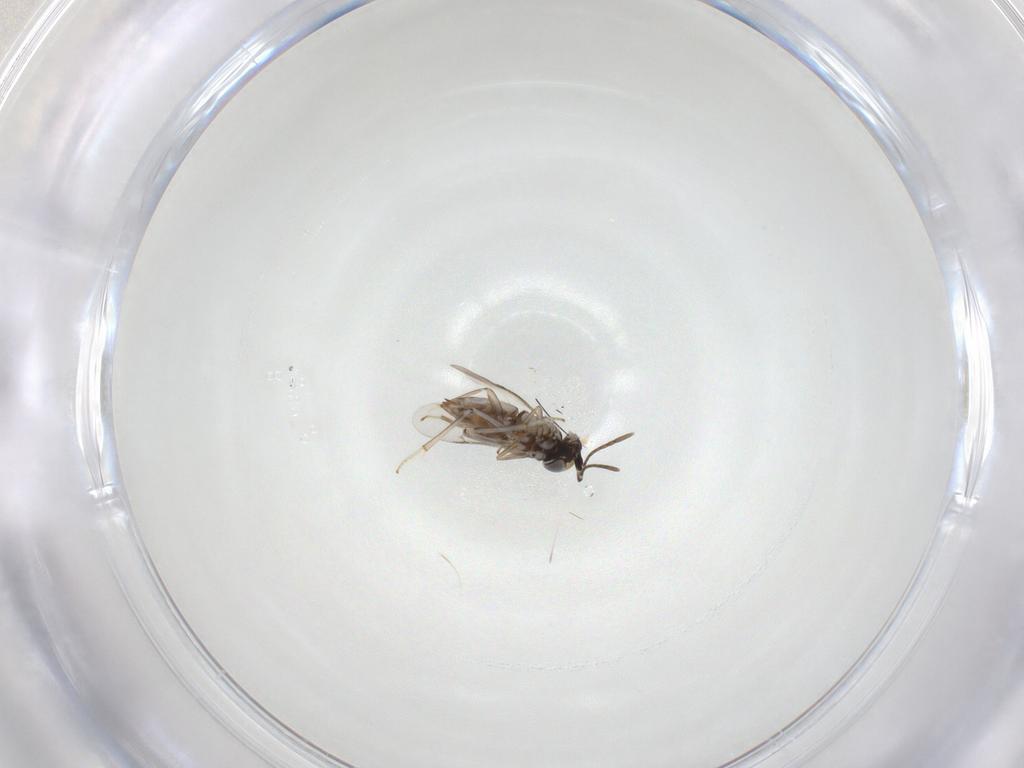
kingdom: Animalia
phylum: Arthropoda
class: Insecta
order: Hymenoptera
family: Encyrtidae
